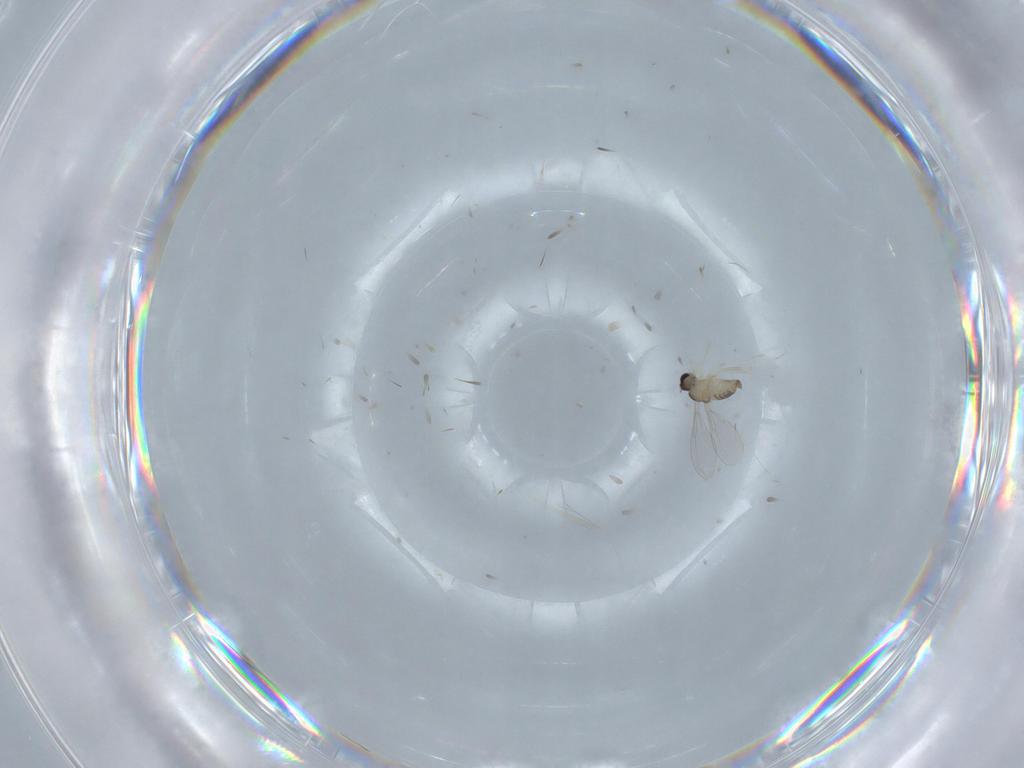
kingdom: Animalia
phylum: Arthropoda
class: Insecta
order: Diptera
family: Cecidomyiidae
